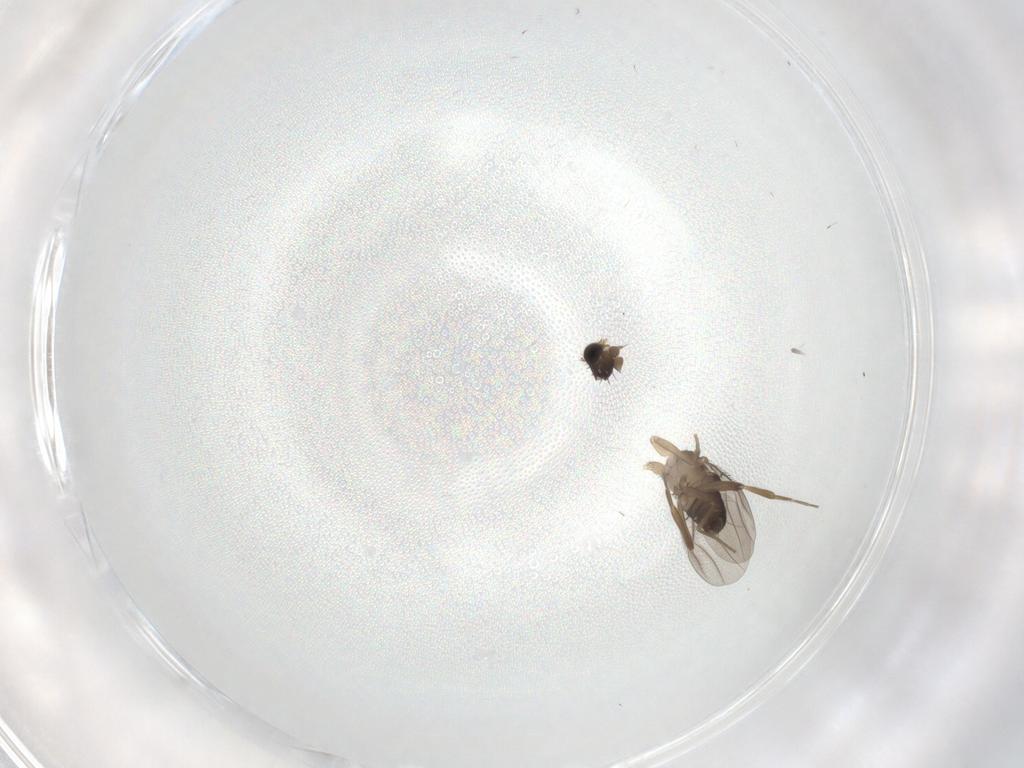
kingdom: Animalia
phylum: Arthropoda
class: Insecta
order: Diptera
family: Phoridae
